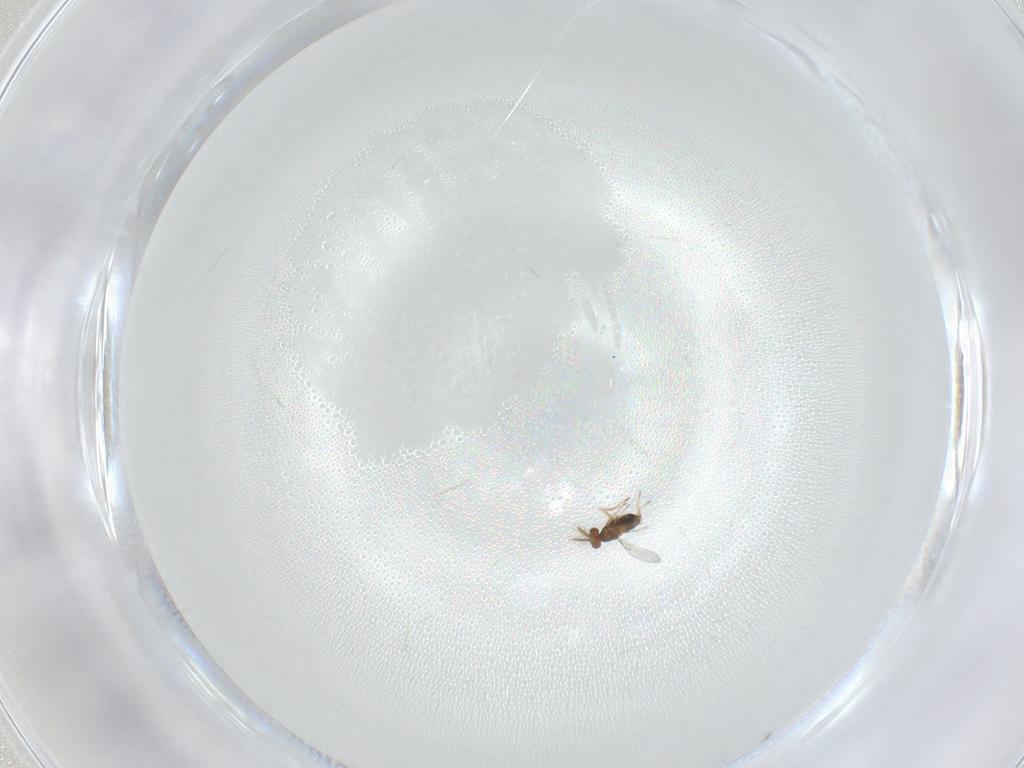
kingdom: Animalia
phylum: Arthropoda
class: Insecta
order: Hymenoptera
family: Trichogrammatidae
